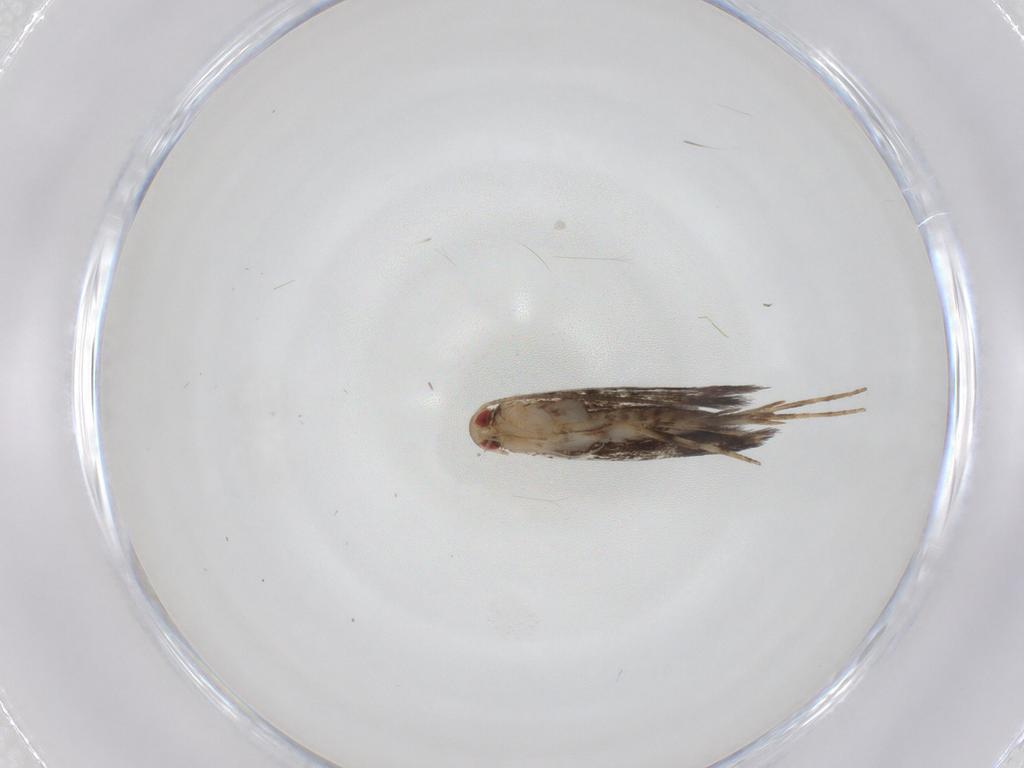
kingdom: Animalia
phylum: Arthropoda
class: Insecta
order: Lepidoptera
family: Gracillariidae
